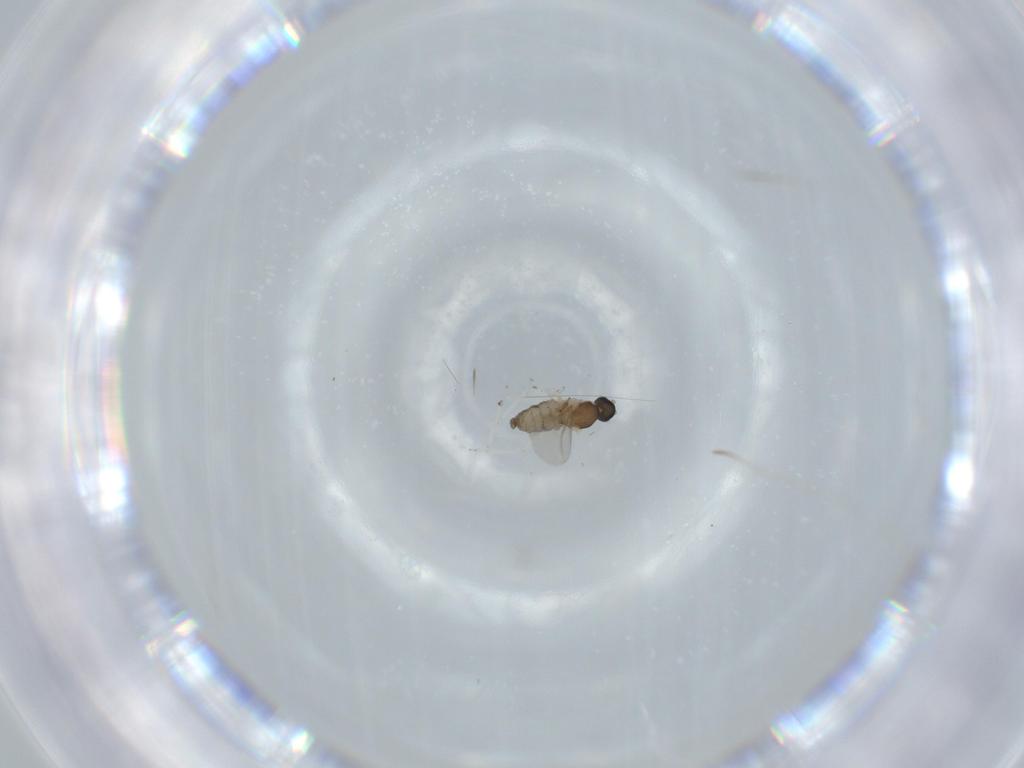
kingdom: Animalia
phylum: Arthropoda
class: Insecta
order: Diptera
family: Cecidomyiidae
